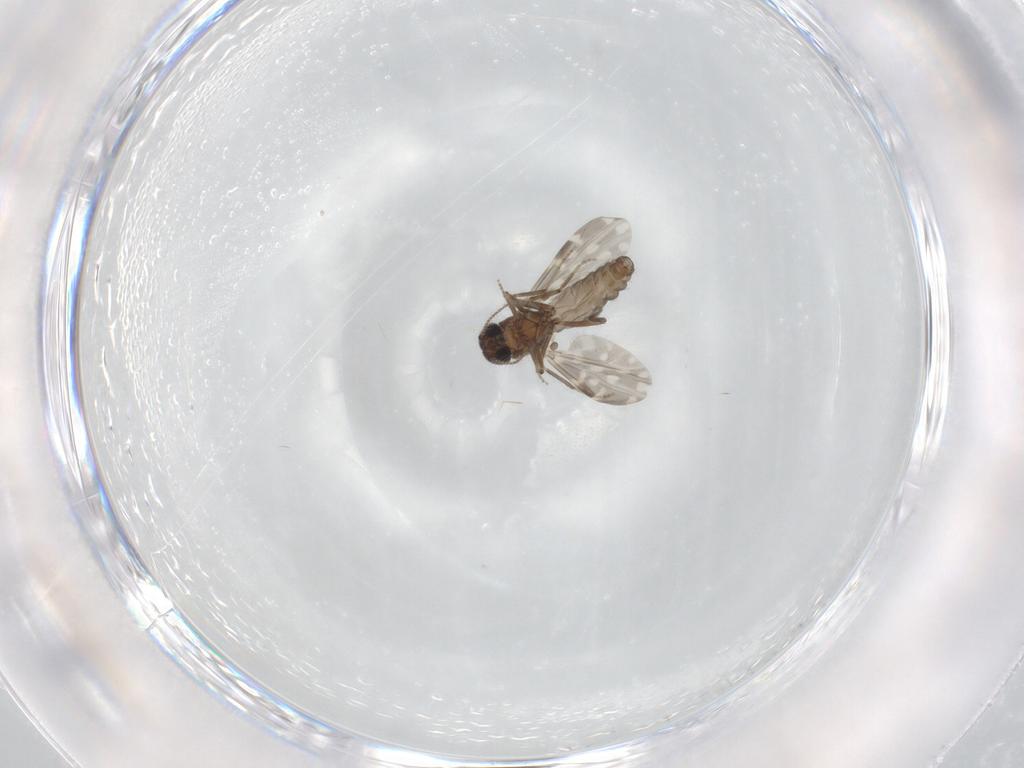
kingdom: Animalia
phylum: Arthropoda
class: Insecta
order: Diptera
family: Ceratopogonidae
